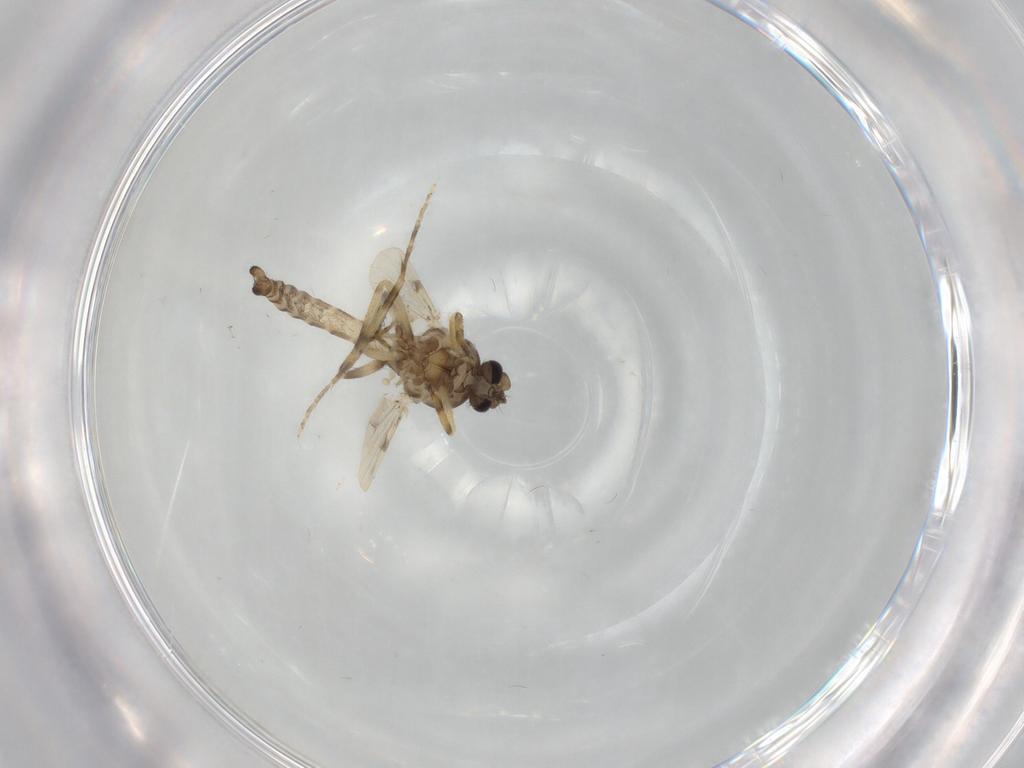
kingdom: Animalia
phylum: Arthropoda
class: Insecta
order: Diptera
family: Ceratopogonidae
